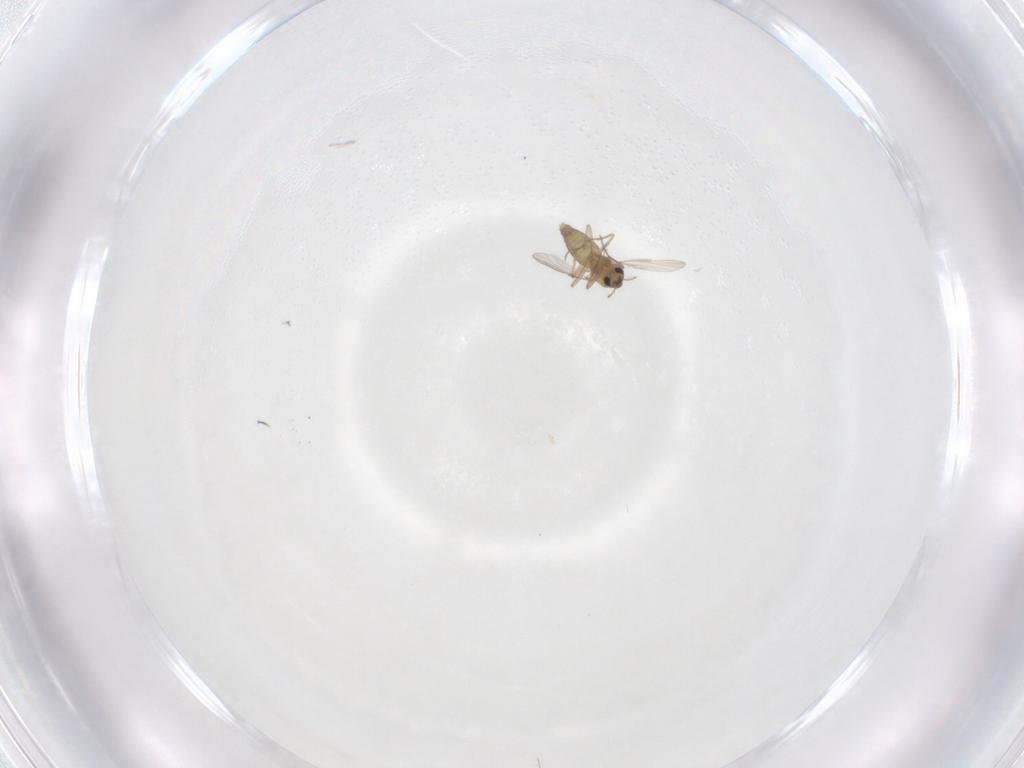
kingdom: Animalia
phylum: Arthropoda
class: Insecta
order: Diptera
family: Chironomidae
